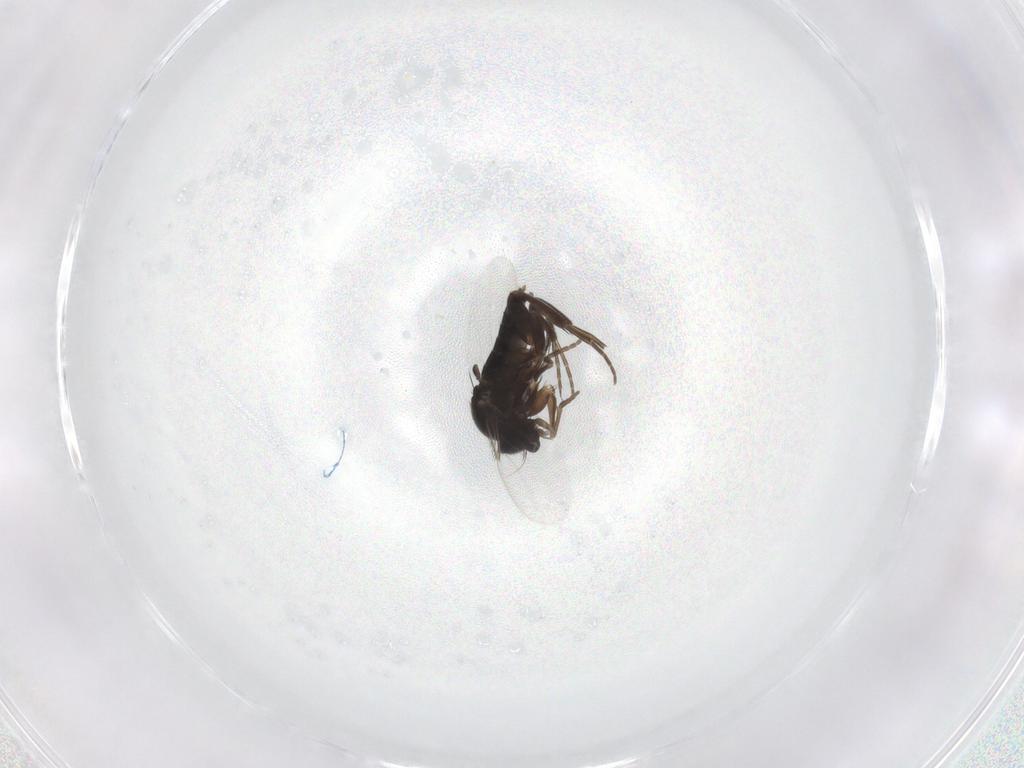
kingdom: Animalia
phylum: Arthropoda
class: Insecta
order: Diptera
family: Phoridae
